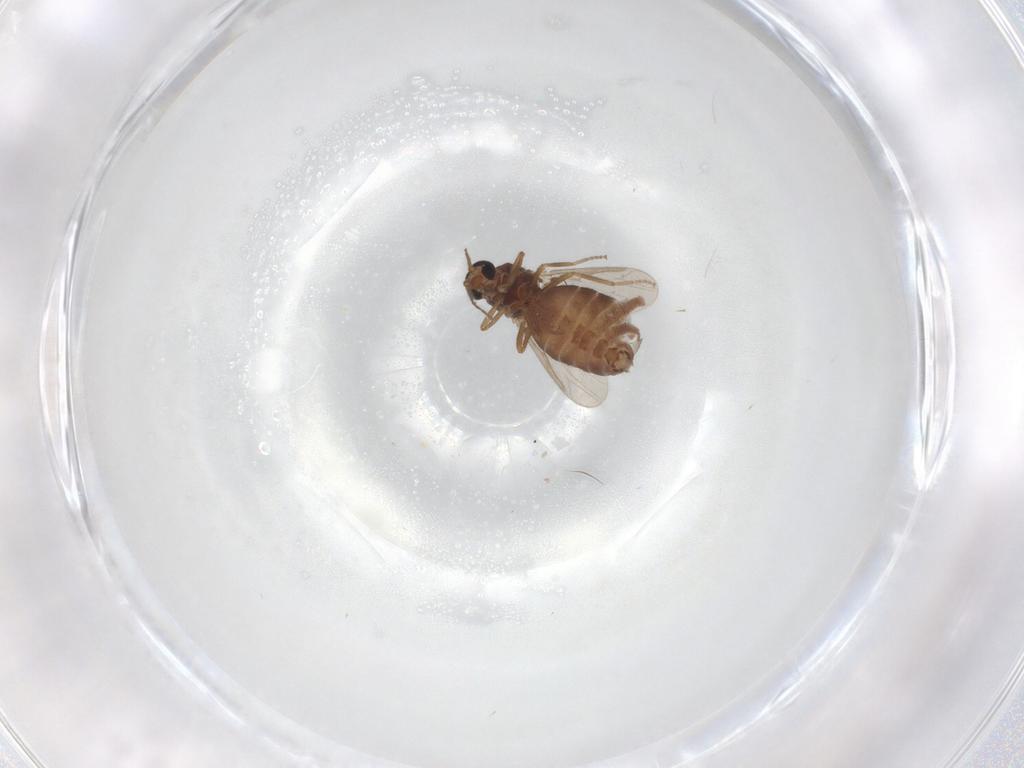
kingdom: Animalia
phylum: Arthropoda
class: Insecta
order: Diptera
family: Ceratopogonidae
